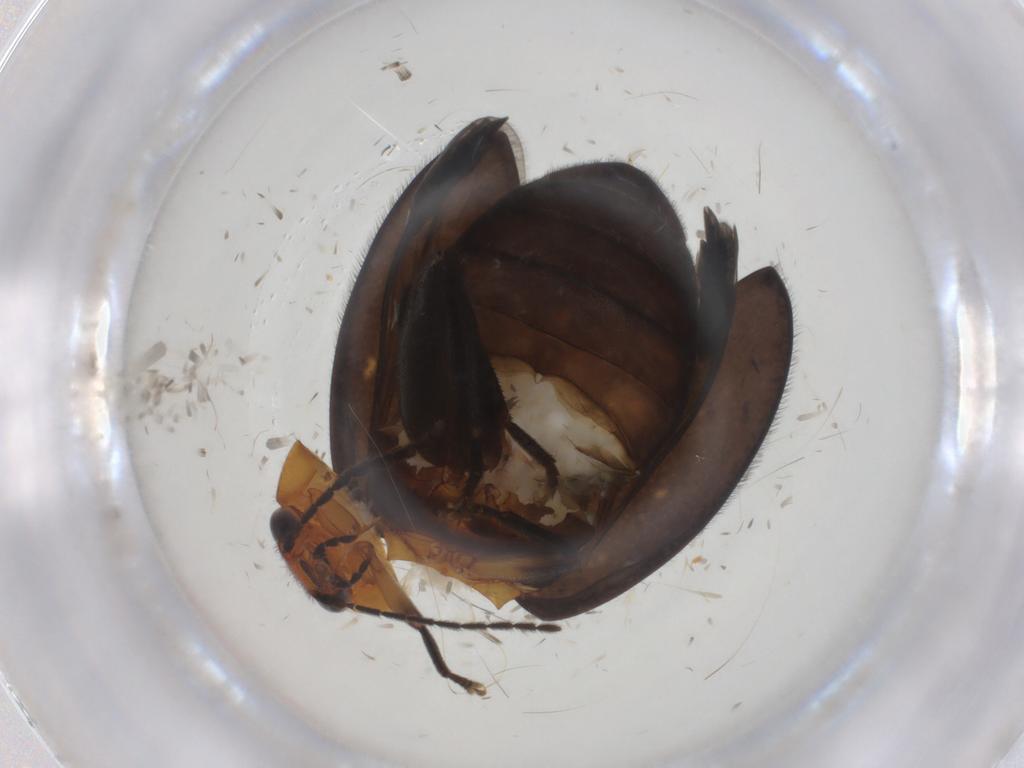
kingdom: Animalia
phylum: Arthropoda
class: Insecta
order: Coleoptera
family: Scirtidae
